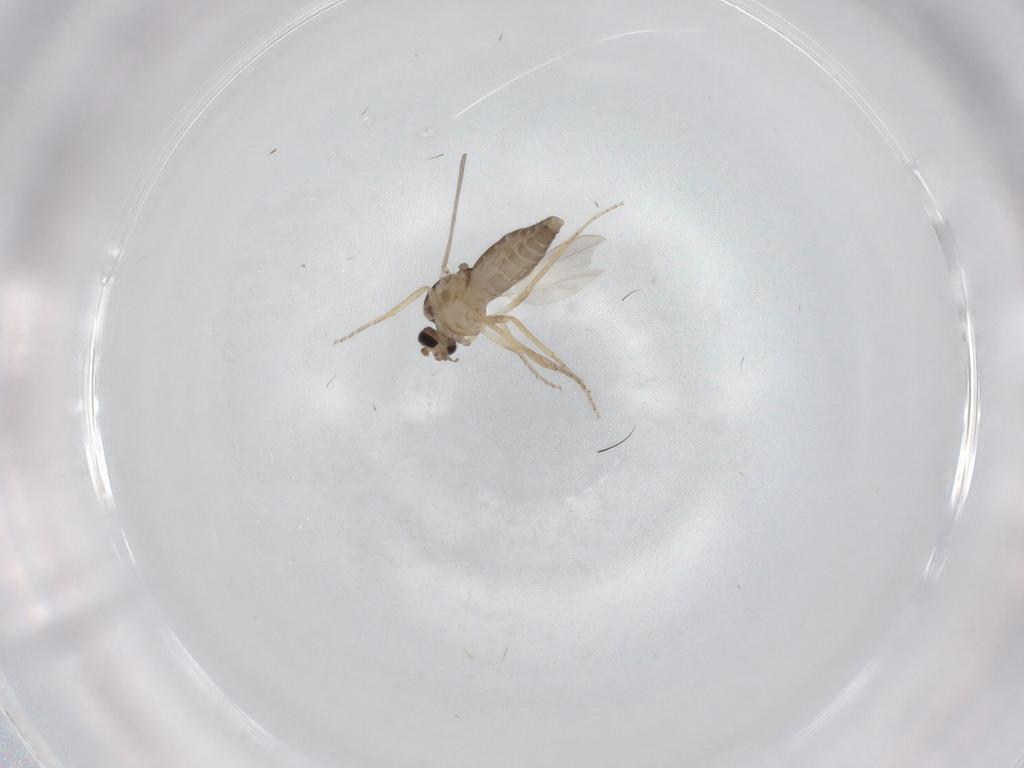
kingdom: Animalia
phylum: Arthropoda
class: Insecta
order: Diptera
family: Ceratopogonidae
